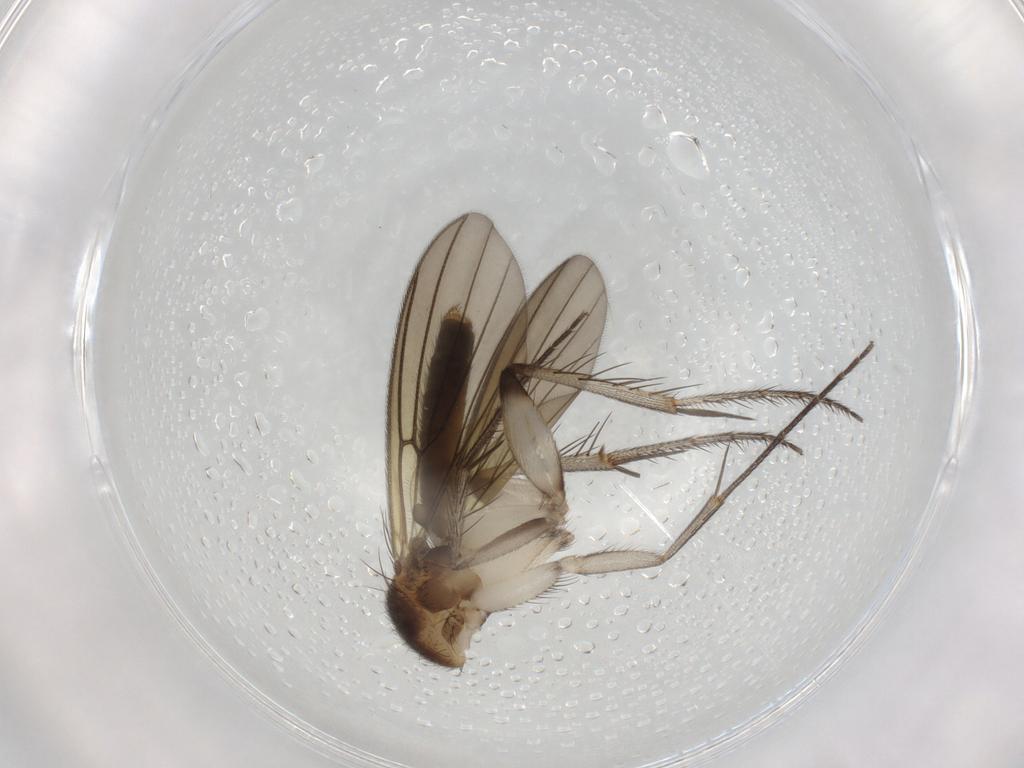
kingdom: Animalia
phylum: Arthropoda
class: Insecta
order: Diptera
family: Mycetophilidae
